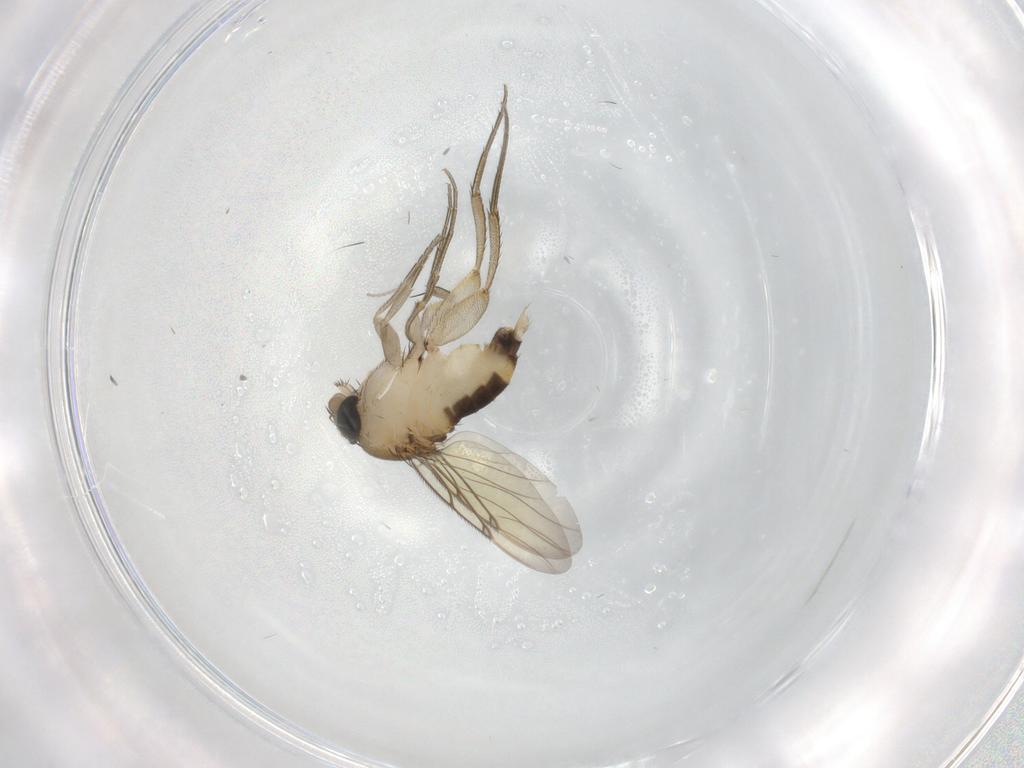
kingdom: Animalia
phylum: Arthropoda
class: Insecta
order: Diptera
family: Cecidomyiidae
